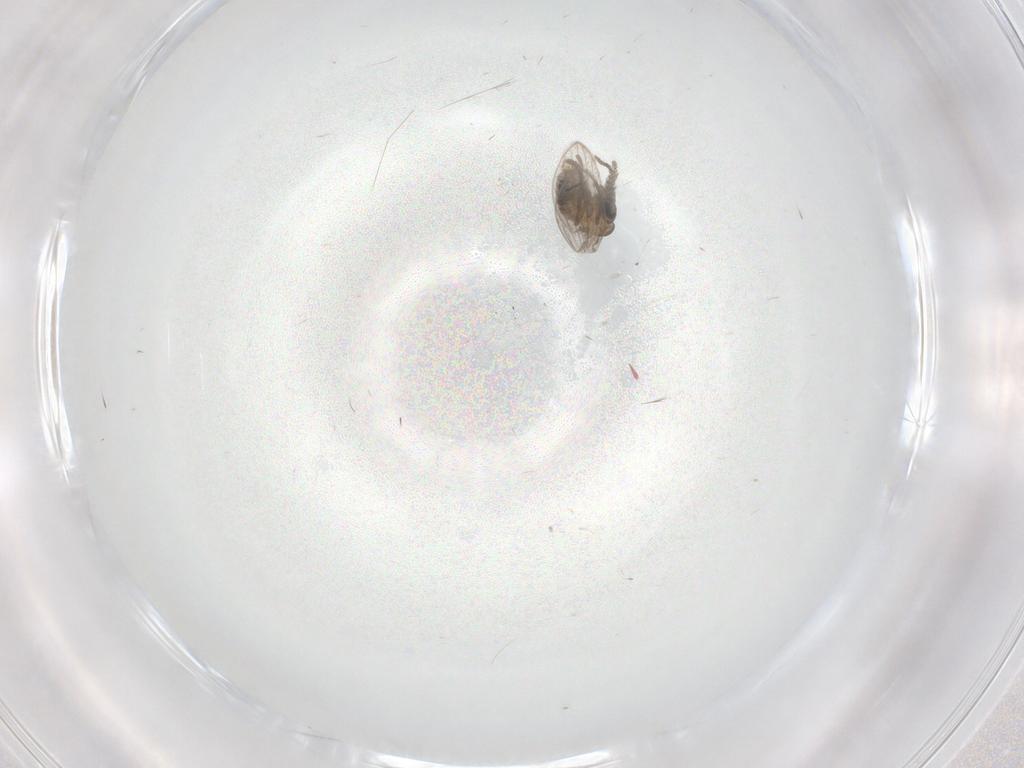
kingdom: Animalia
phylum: Arthropoda
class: Insecta
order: Diptera
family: Psychodidae
